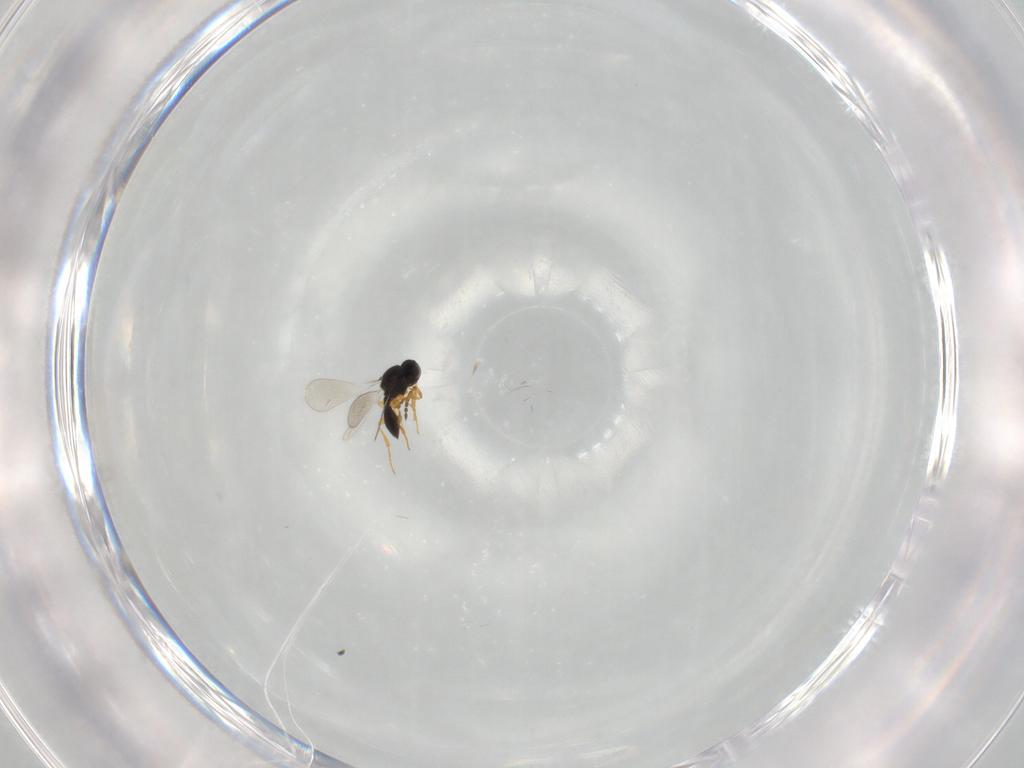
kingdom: Animalia
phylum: Arthropoda
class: Insecta
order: Hymenoptera
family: Platygastridae
